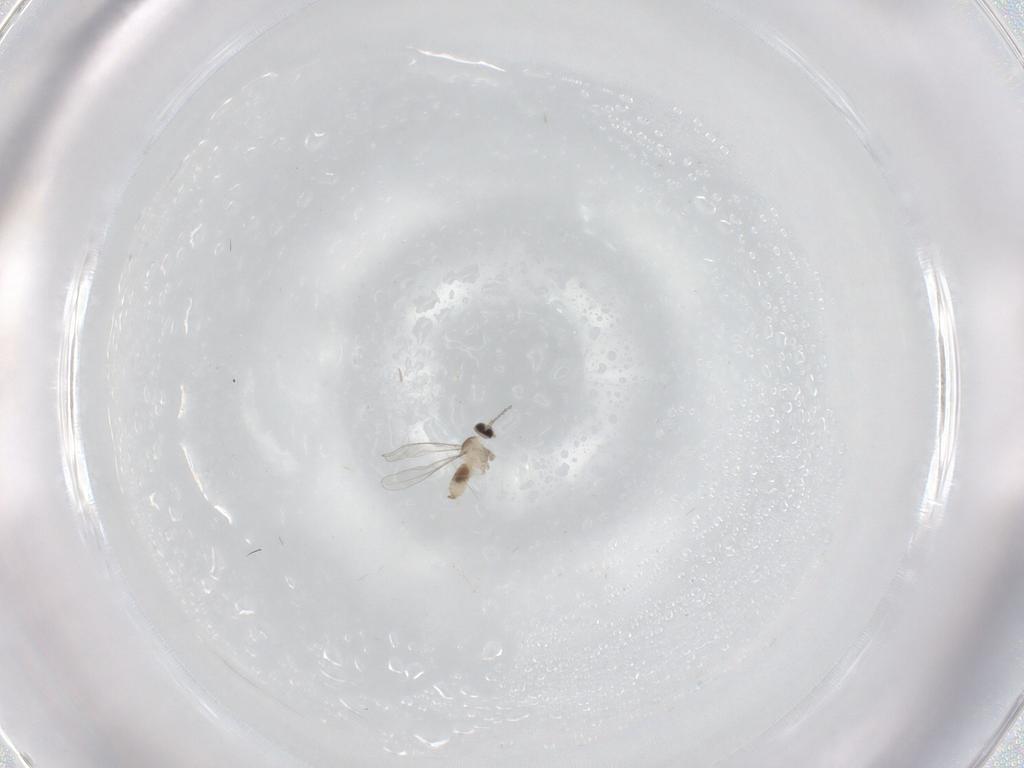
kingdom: Animalia
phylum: Arthropoda
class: Insecta
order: Diptera
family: Cecidomyiidae
